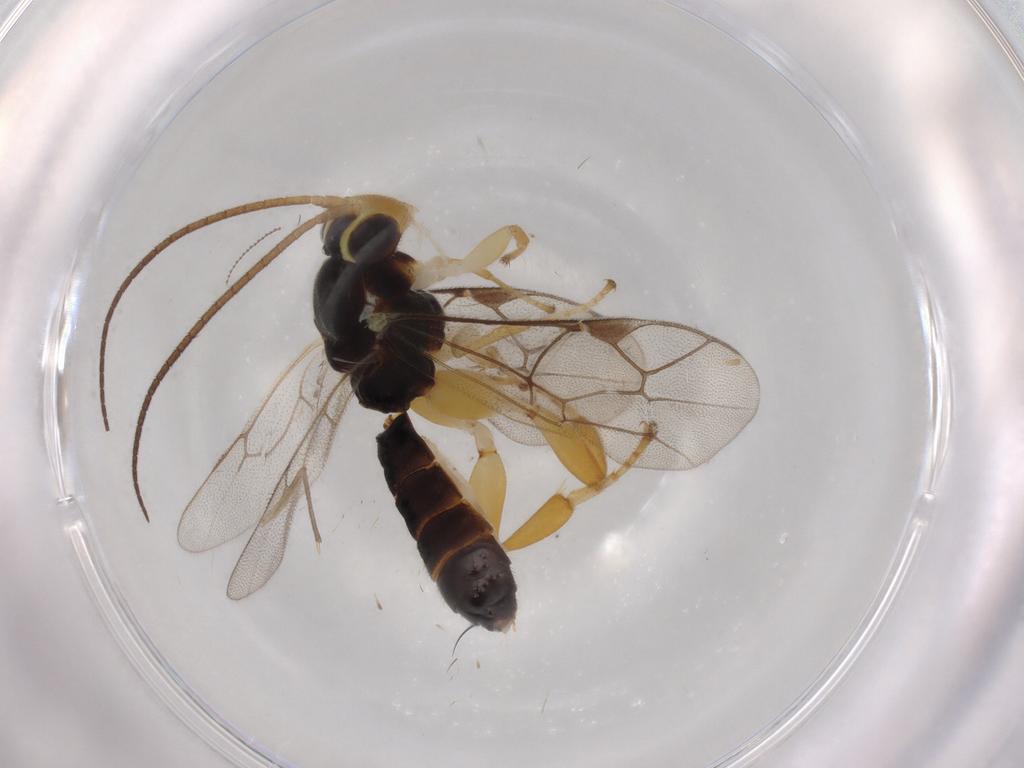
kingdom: Animalia
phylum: Arthropoda
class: Insecta
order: Hymenoptera
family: Ichneumonidae
